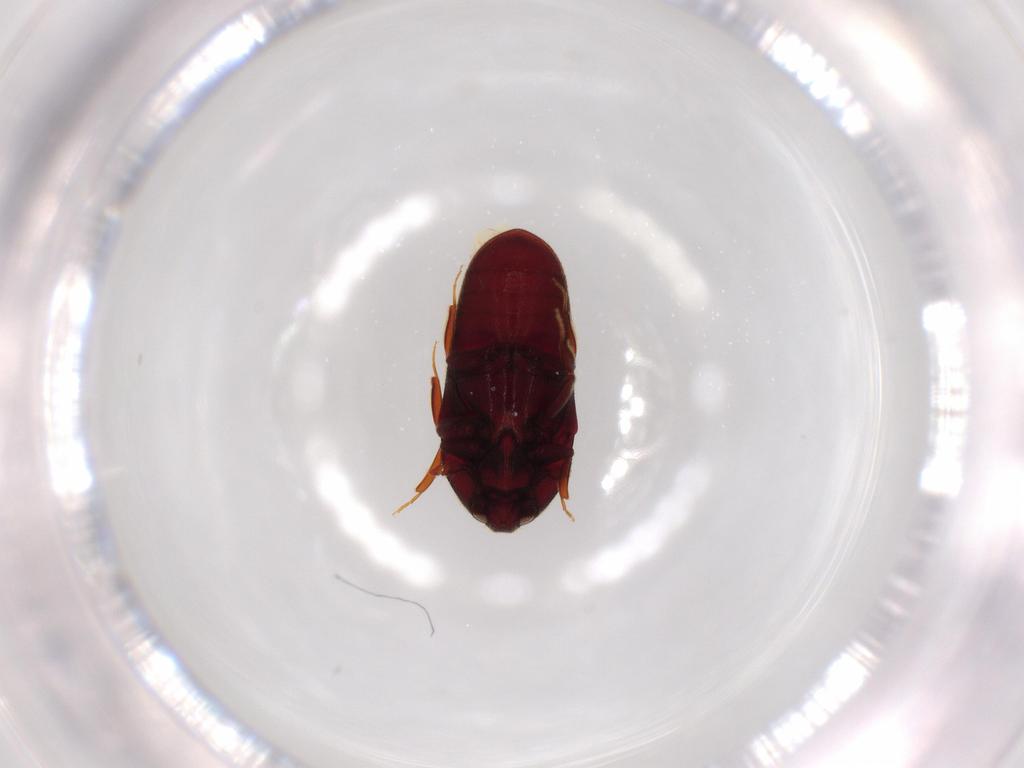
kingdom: Animalia
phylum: Arthropoda
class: Insecta
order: Coleoptera
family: Throscidae
